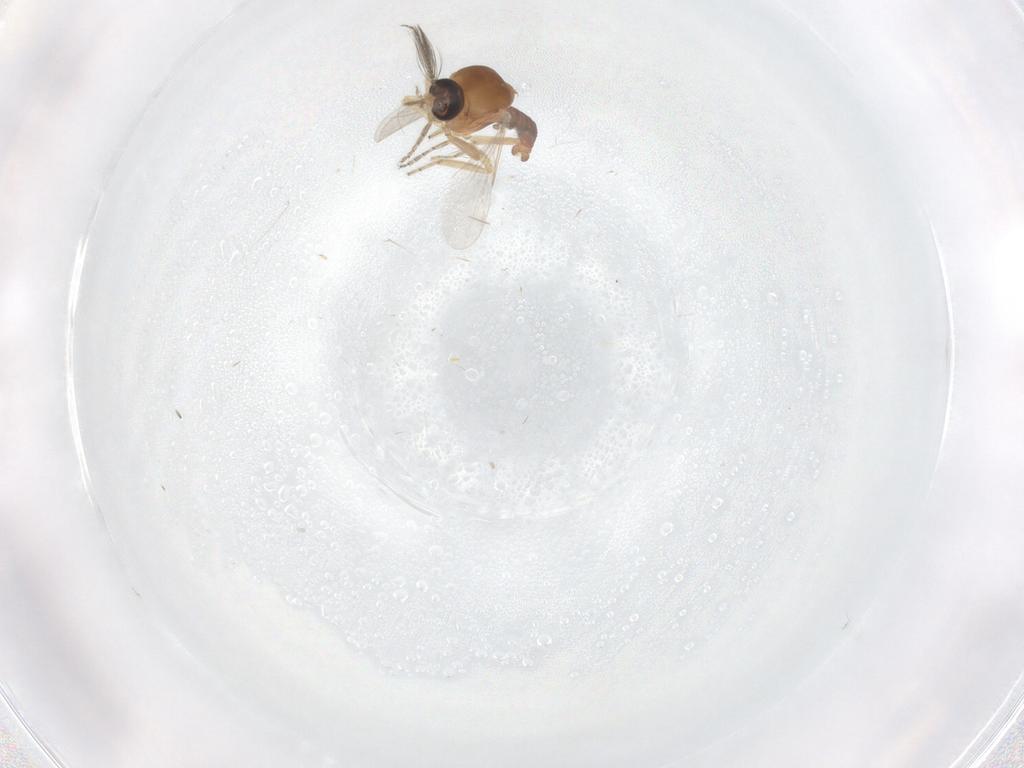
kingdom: Animalia
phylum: Arthropoda
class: Insecta
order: Diptera
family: Ceratopogonidae
